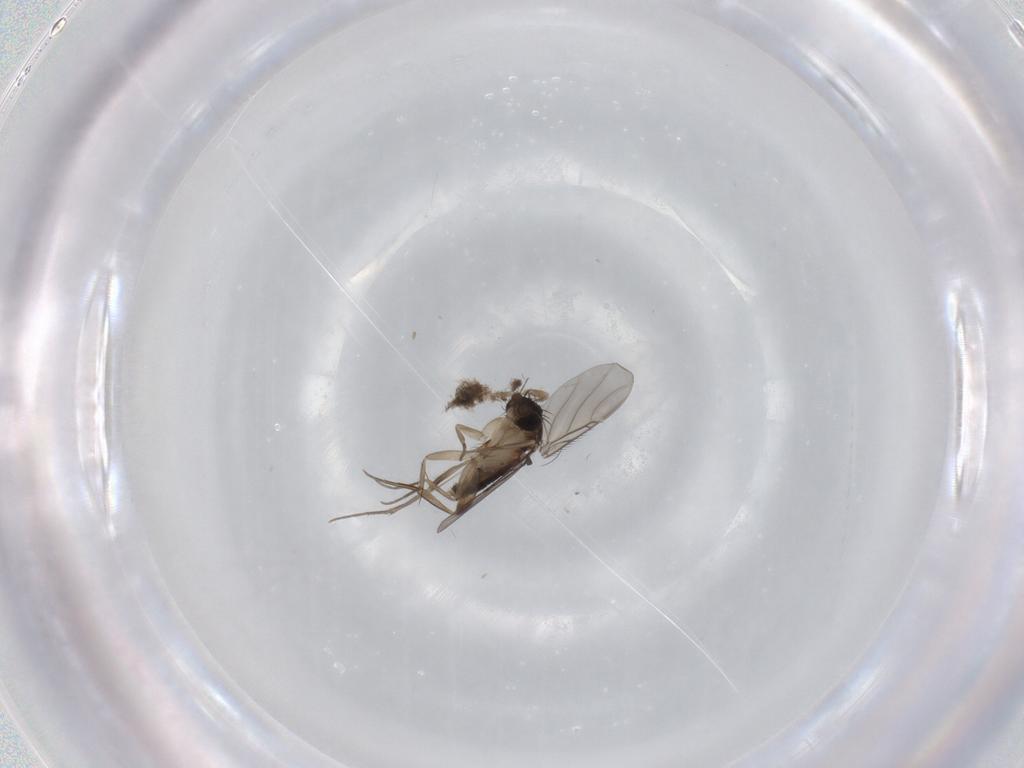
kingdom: Animalia
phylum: Arthropoda
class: Insecta
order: Diptera
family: Phoridae
